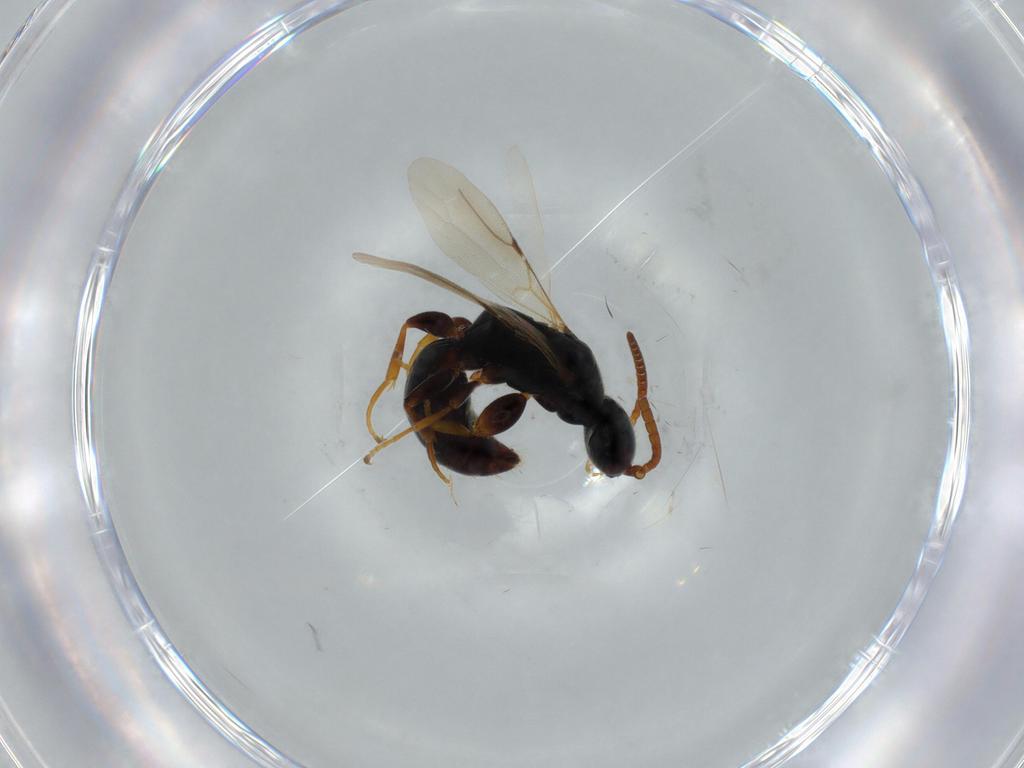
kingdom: Animalia
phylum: Arthropoda
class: Insecta
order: Hymenoptera
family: Bethylidae
